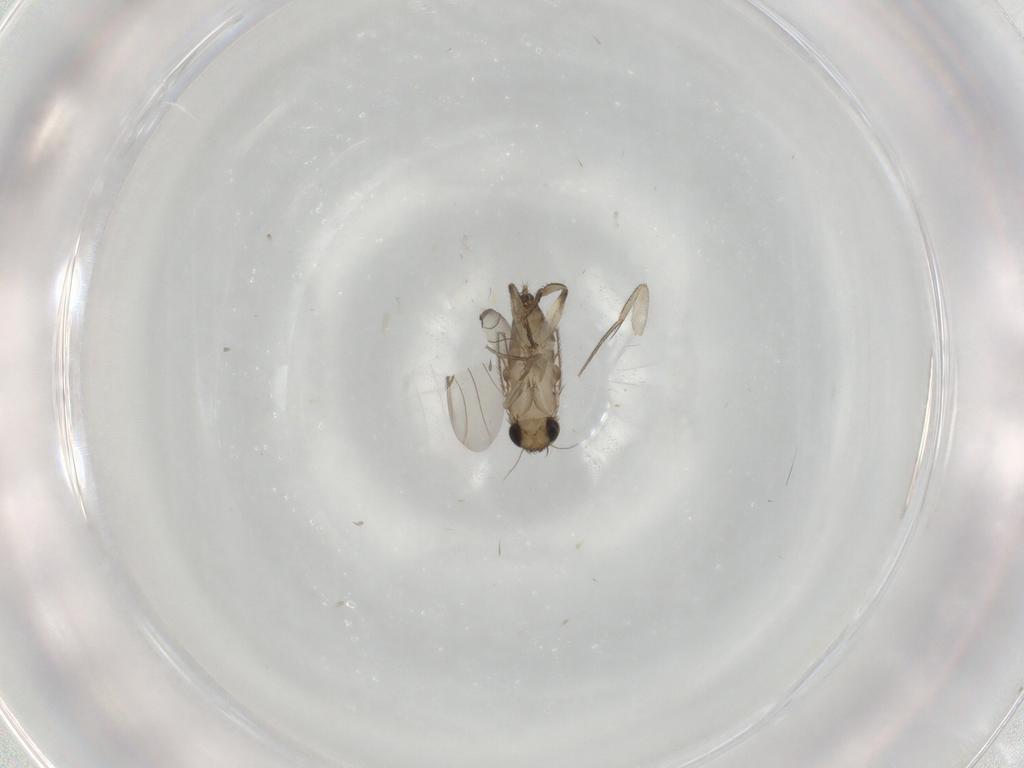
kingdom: Animalia
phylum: Arthropoda
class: Insecta
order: Diptera
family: Phoridae
